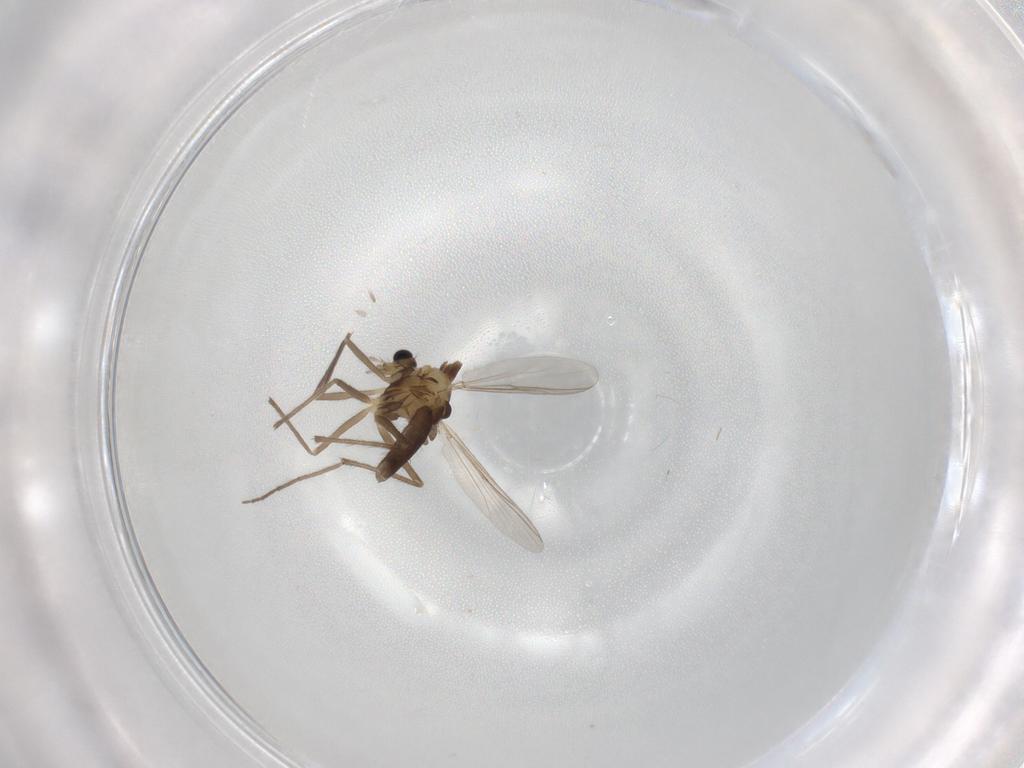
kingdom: Animalia
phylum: Arthropoda
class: Insecta
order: Diptera
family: Chironomidae
